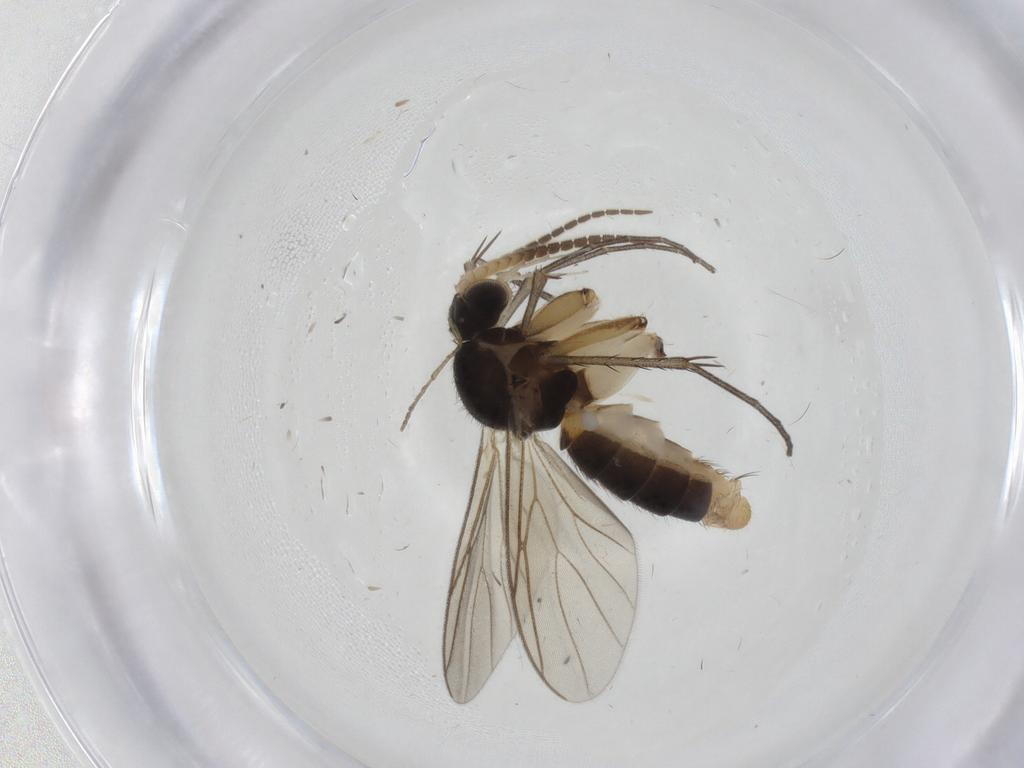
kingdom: Animalia
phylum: Arthropoda
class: Insecta
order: Diptera
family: Mycetophilidae
